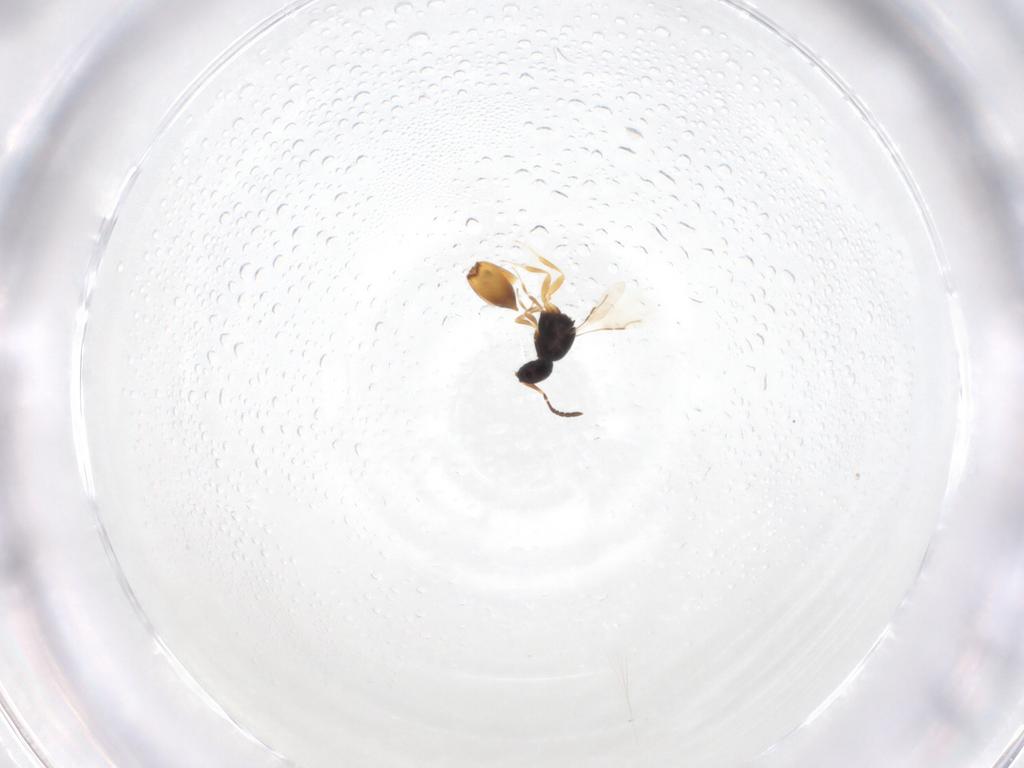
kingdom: Animalia
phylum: Arthropoda
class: Insecta
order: Hymenoptera
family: Ceraphronidae
